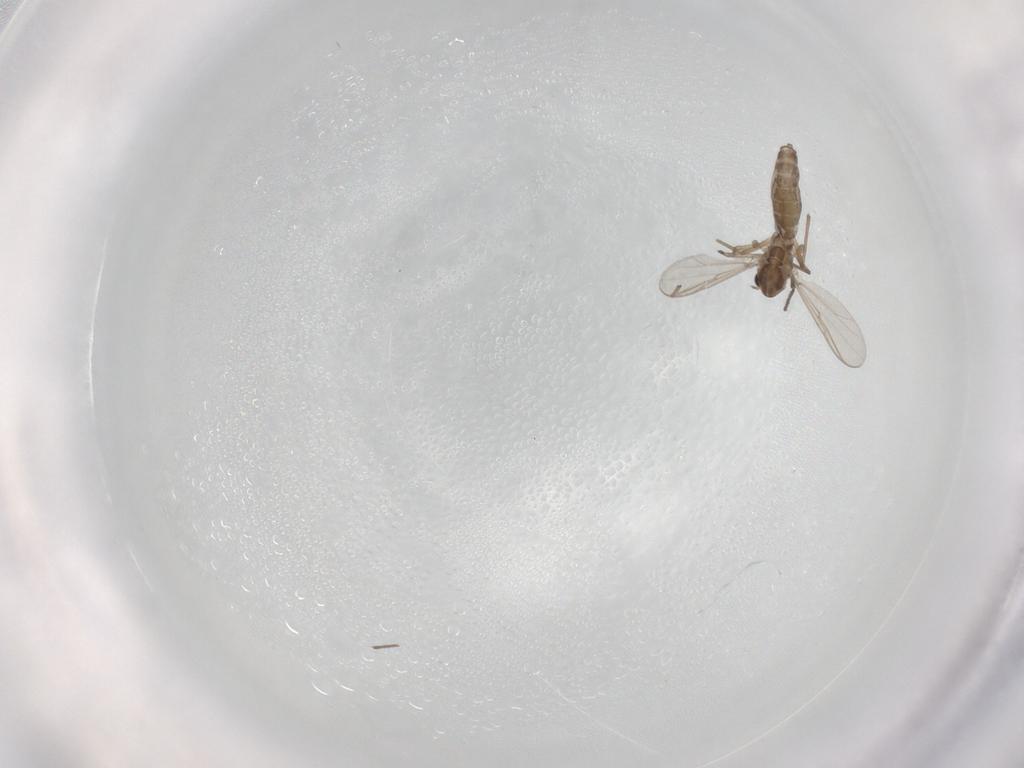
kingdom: Animalia
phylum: Arthropoda
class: Insecta
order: Diptera
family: Chironomidae
